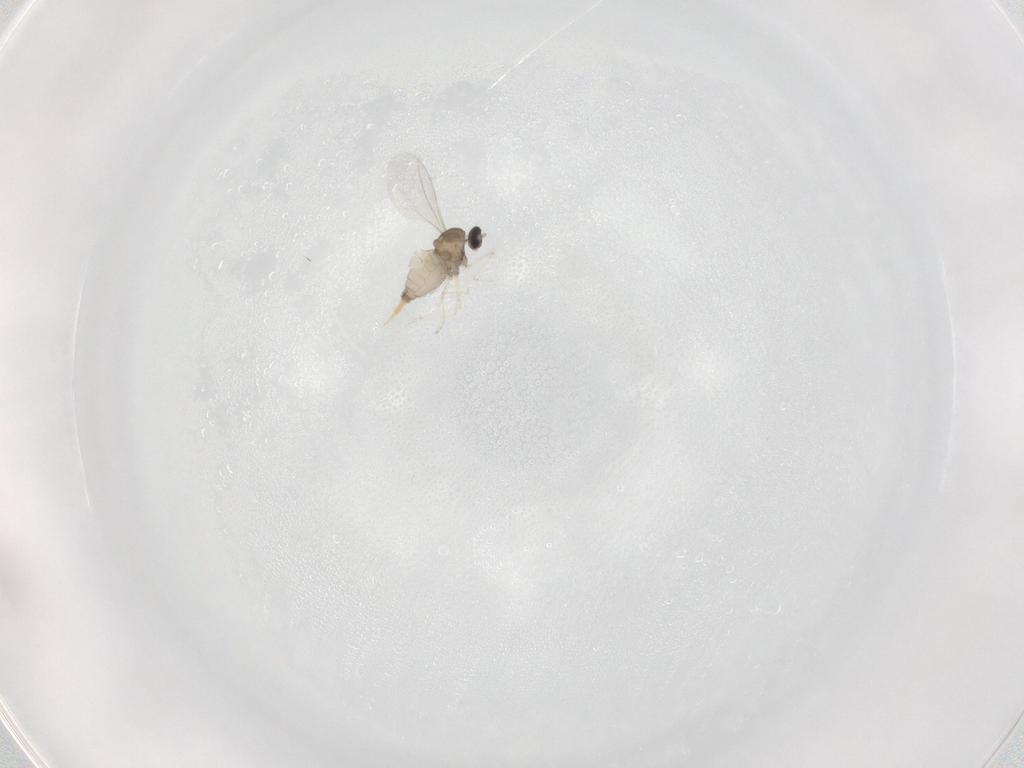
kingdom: Animalia
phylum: Arthropoda
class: Insecta
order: Diptera
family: Cecidomyiidae
